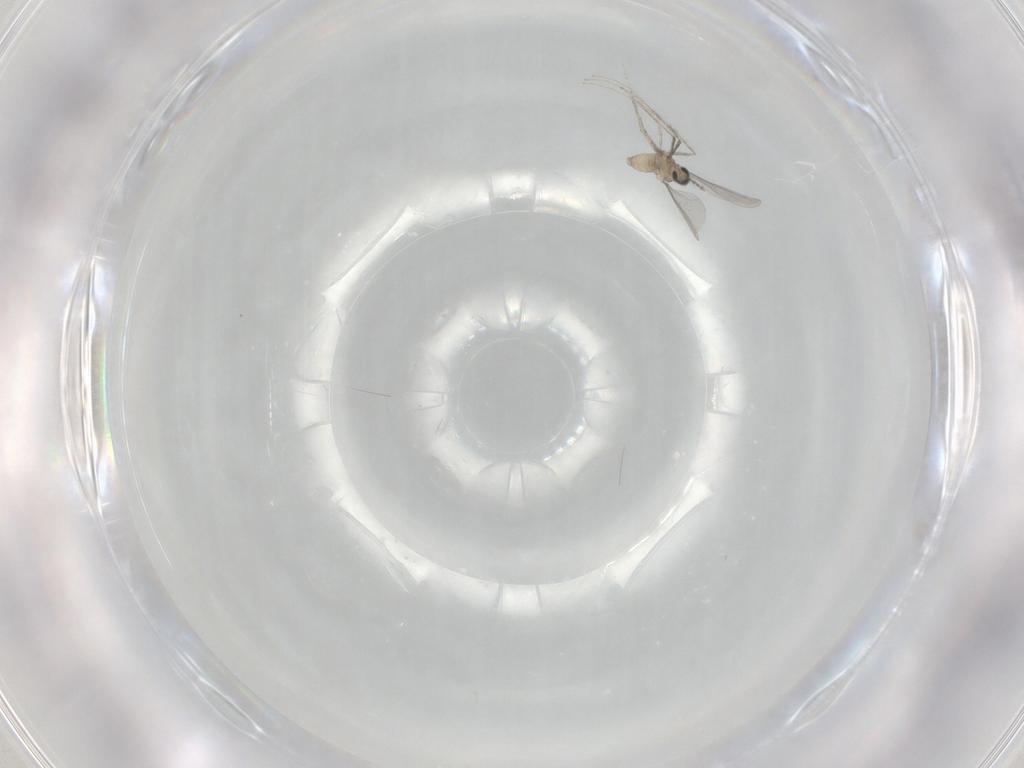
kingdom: Animalia
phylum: Arthropoda
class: Insecta
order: Diptera
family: Cecidomyiidae
